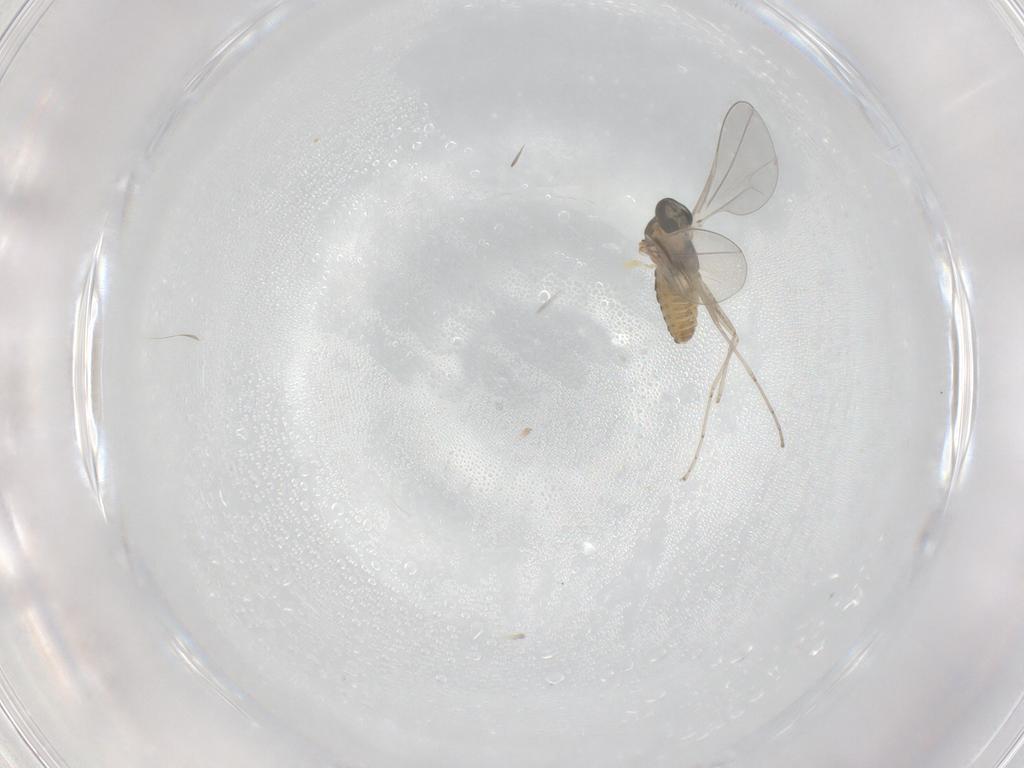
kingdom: Animalia
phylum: Arthropoda
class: Insecta
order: Diptera
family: Cecidomyiidae
